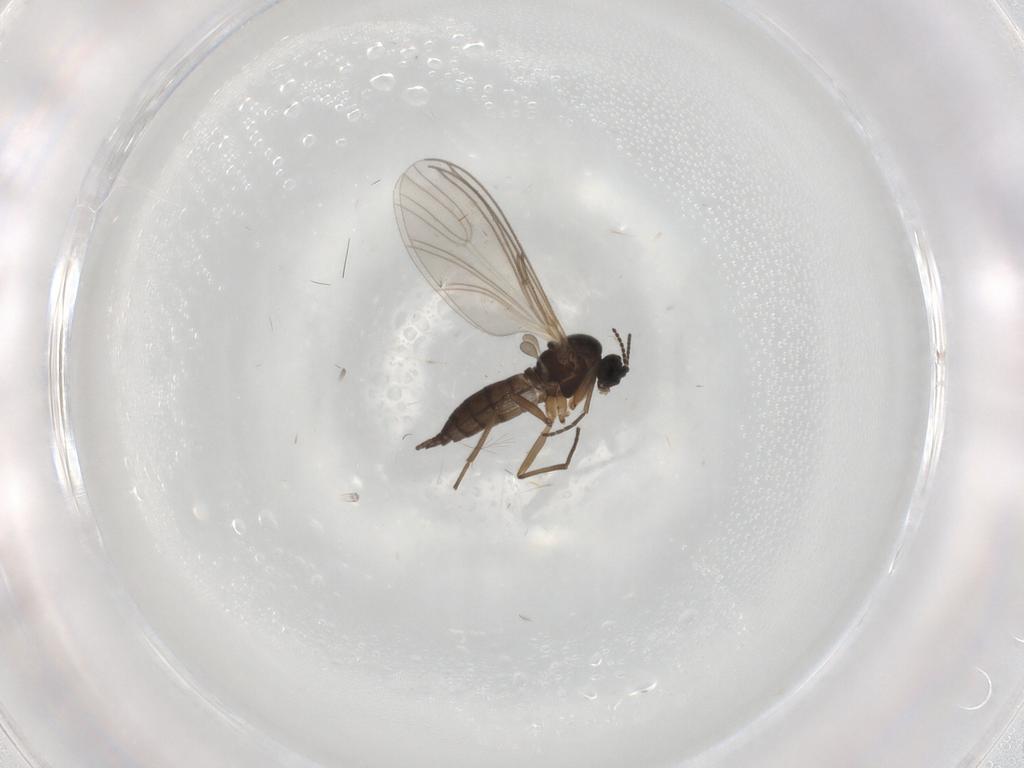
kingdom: Animalia
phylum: Arthropoda
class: Insecta
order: Diptera
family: Sciaridae
